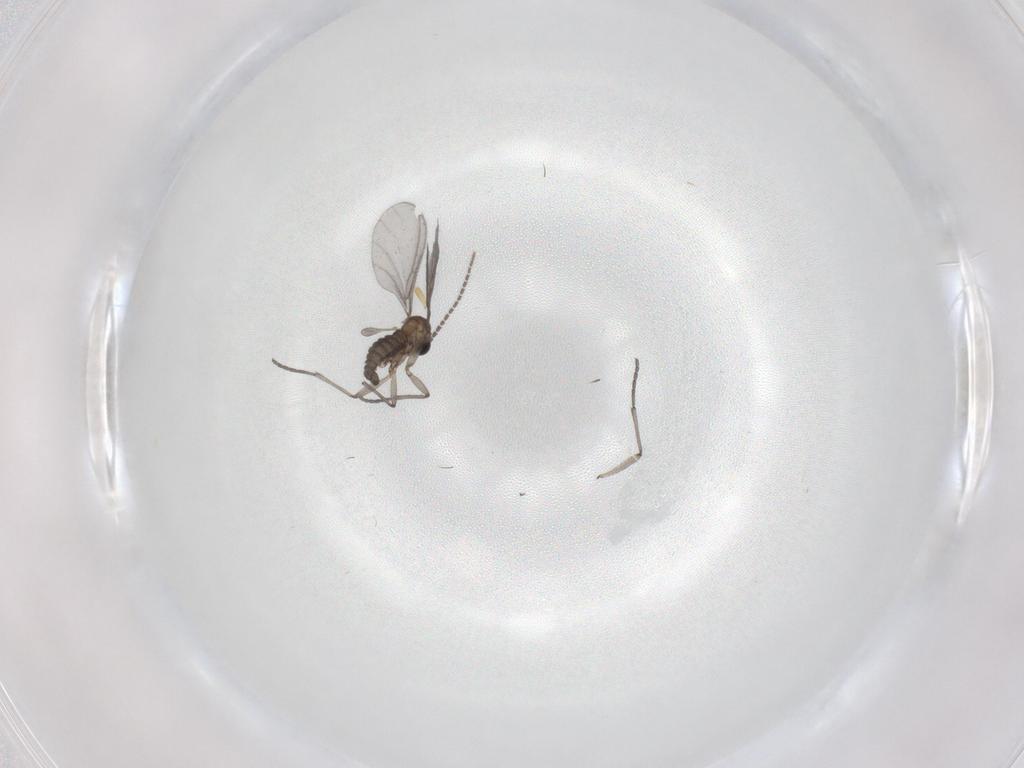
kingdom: Animalia
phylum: Arthropoda
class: Insecta
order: Diptera
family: Sciaridae
